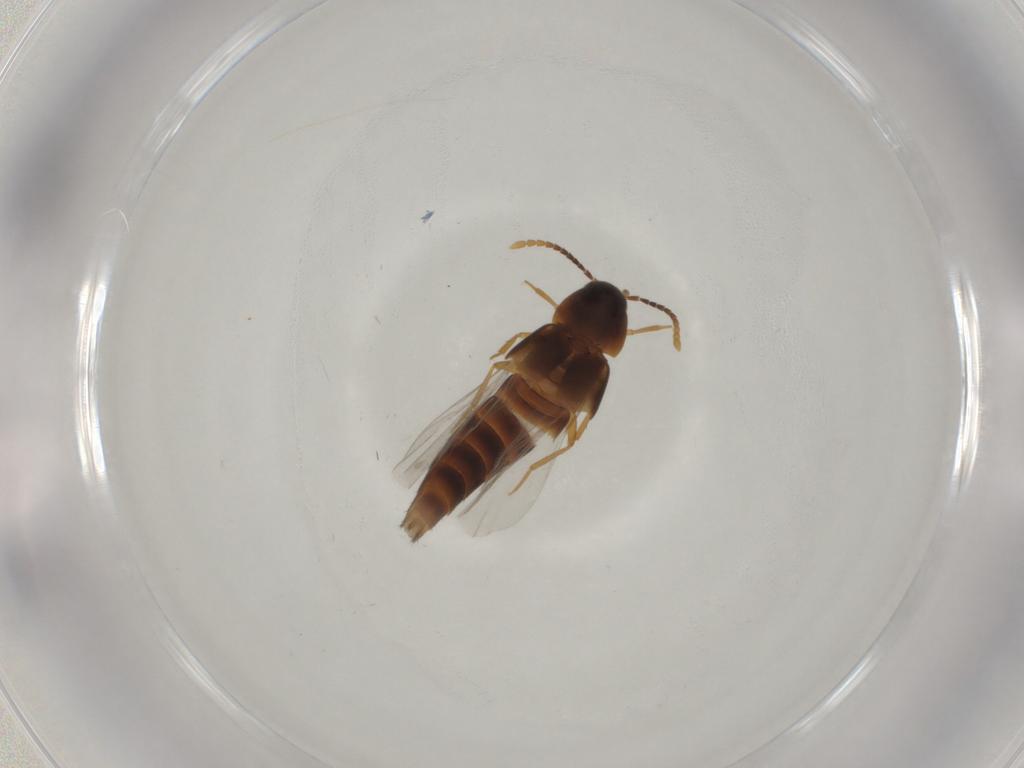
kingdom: Animalia
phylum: Arthropoda
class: Insecta
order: Coleoptera
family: Staphylinidae
